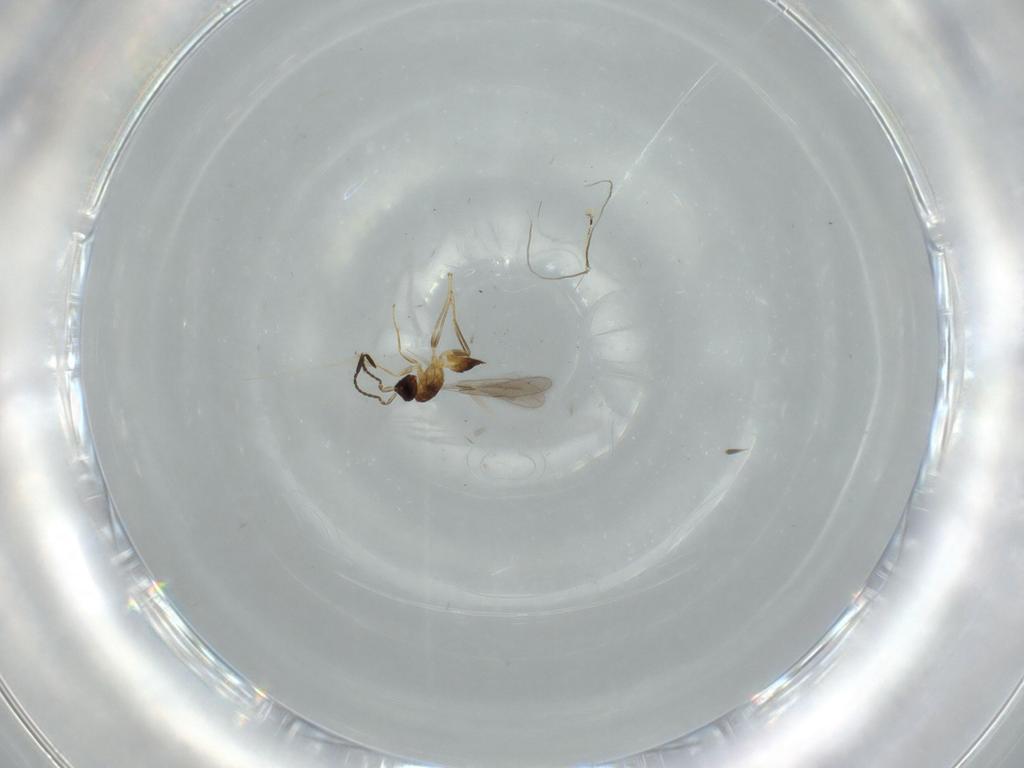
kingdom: Animalia
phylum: Arthropoda
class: Insecta
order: Hymenoptera
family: Mymaridae
